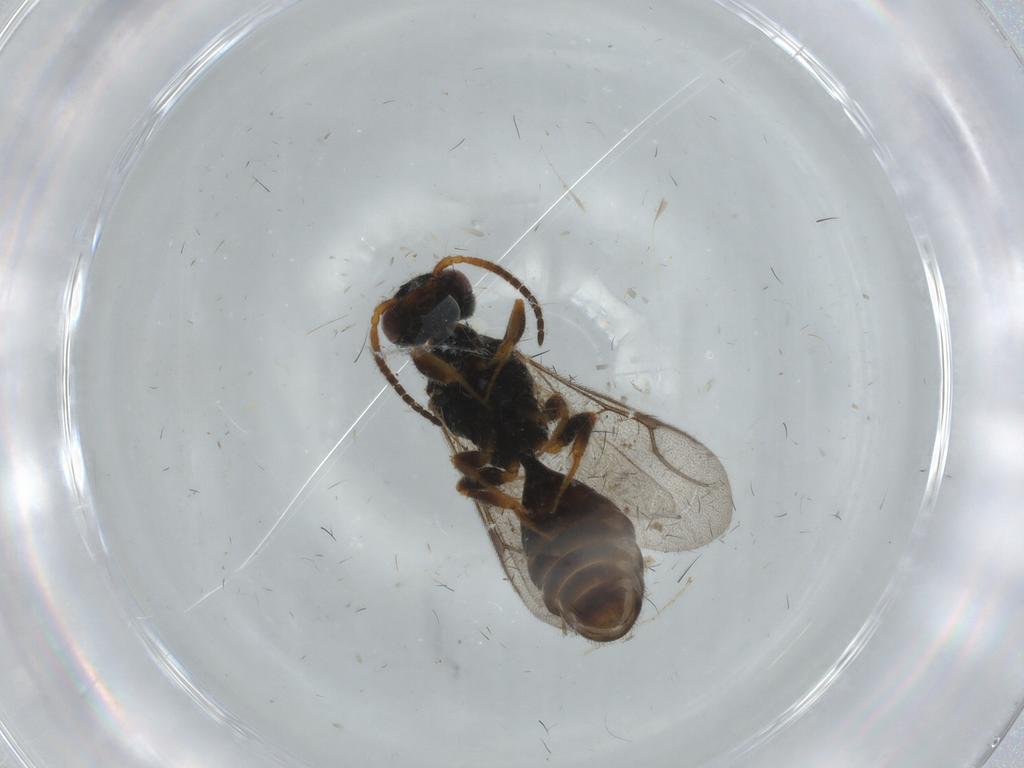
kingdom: Animalia
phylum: Arthropoda
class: Insecta
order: Hymenoptera
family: Bethylidae
